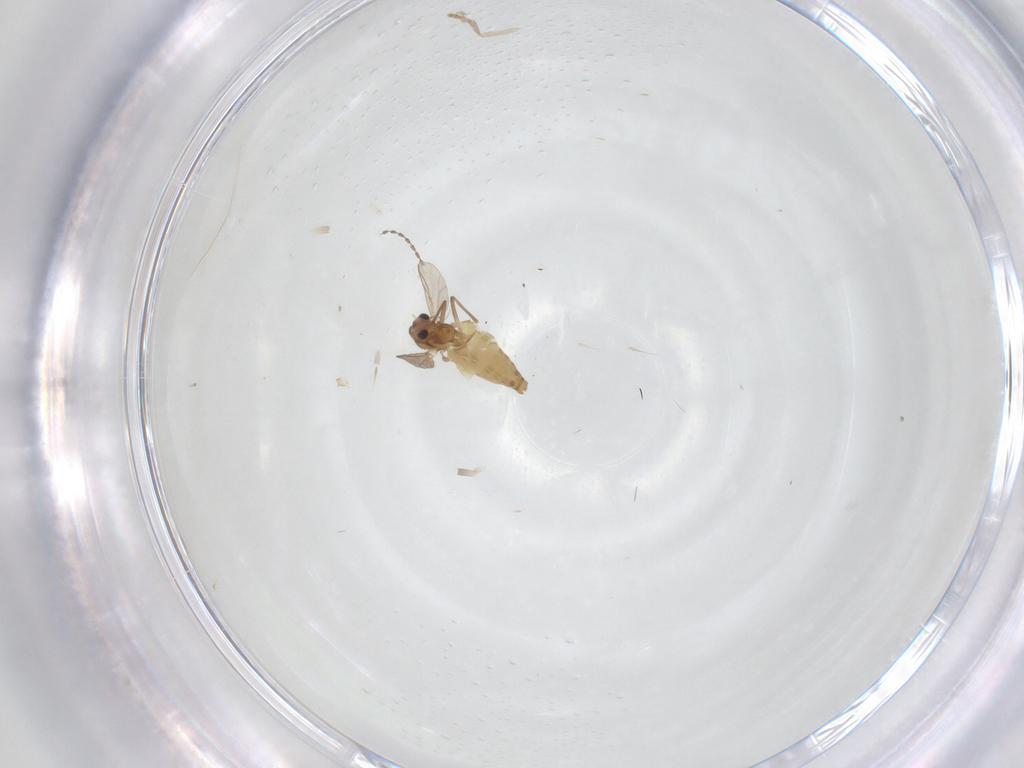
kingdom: Animalia
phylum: Arthropoda
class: Insecta
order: Diptera
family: Chironomidae
